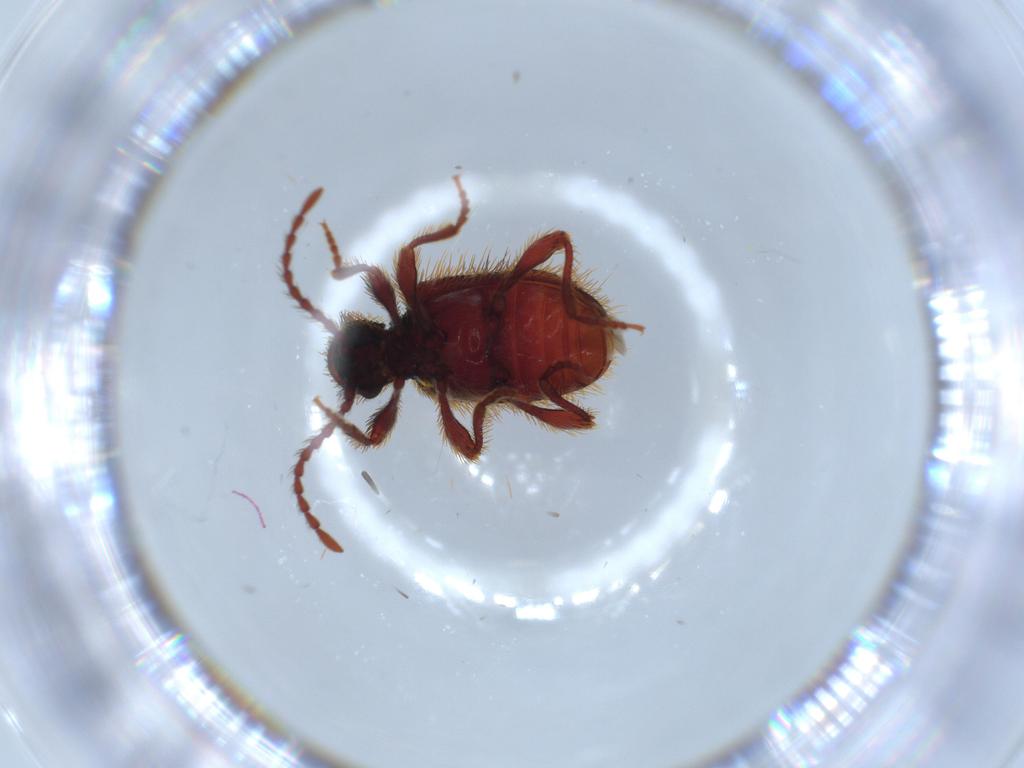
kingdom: Animalia
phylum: Arthropoda
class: Insecta
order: Coleoptera
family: Ptinidae
